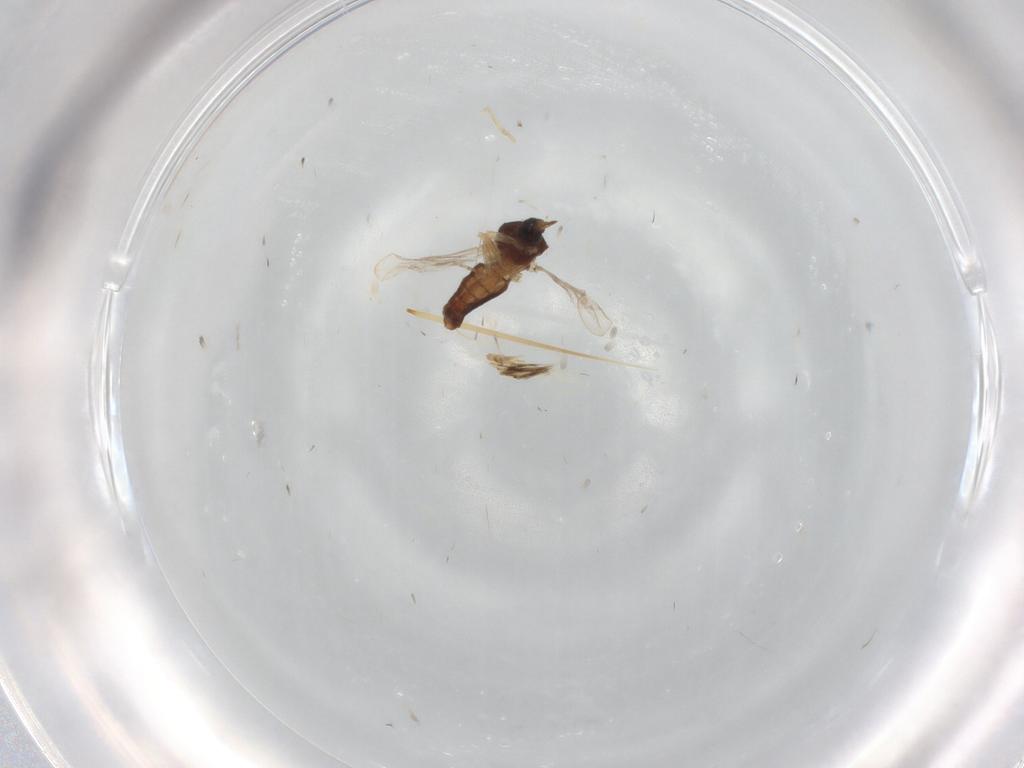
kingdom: Animalia
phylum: Arthropoda
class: Insecta
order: Diptera
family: Ceratopogonidae
